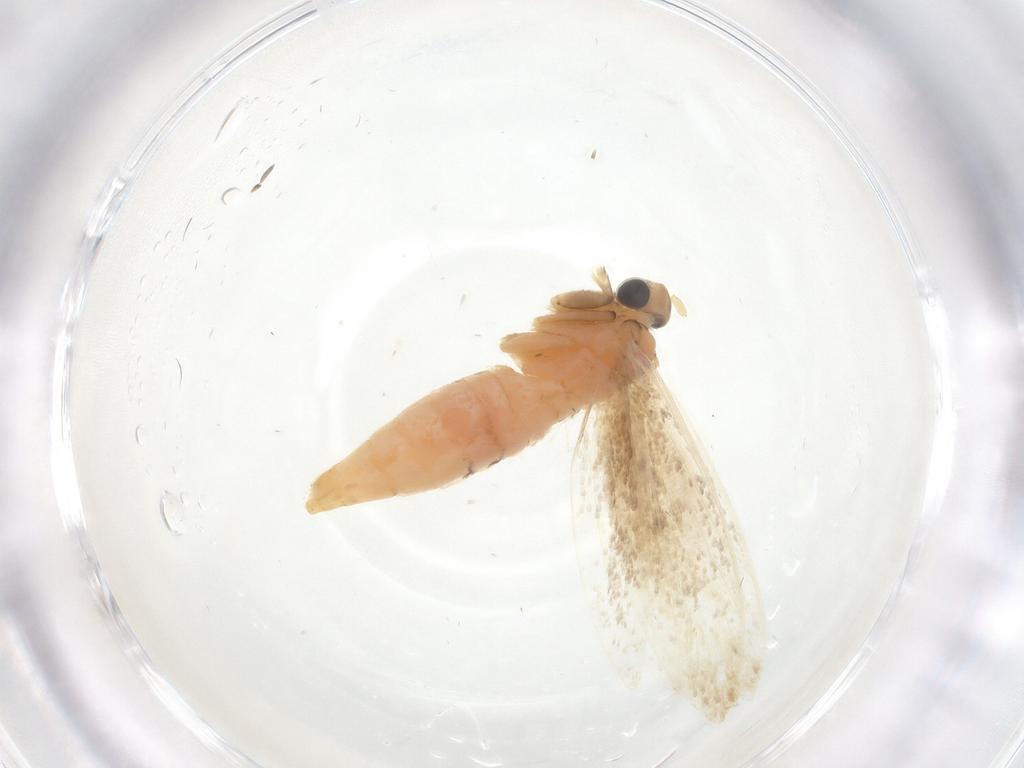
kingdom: Animalia
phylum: Arthropoda
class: Insecta
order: Lepidoptera
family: Tineidae
